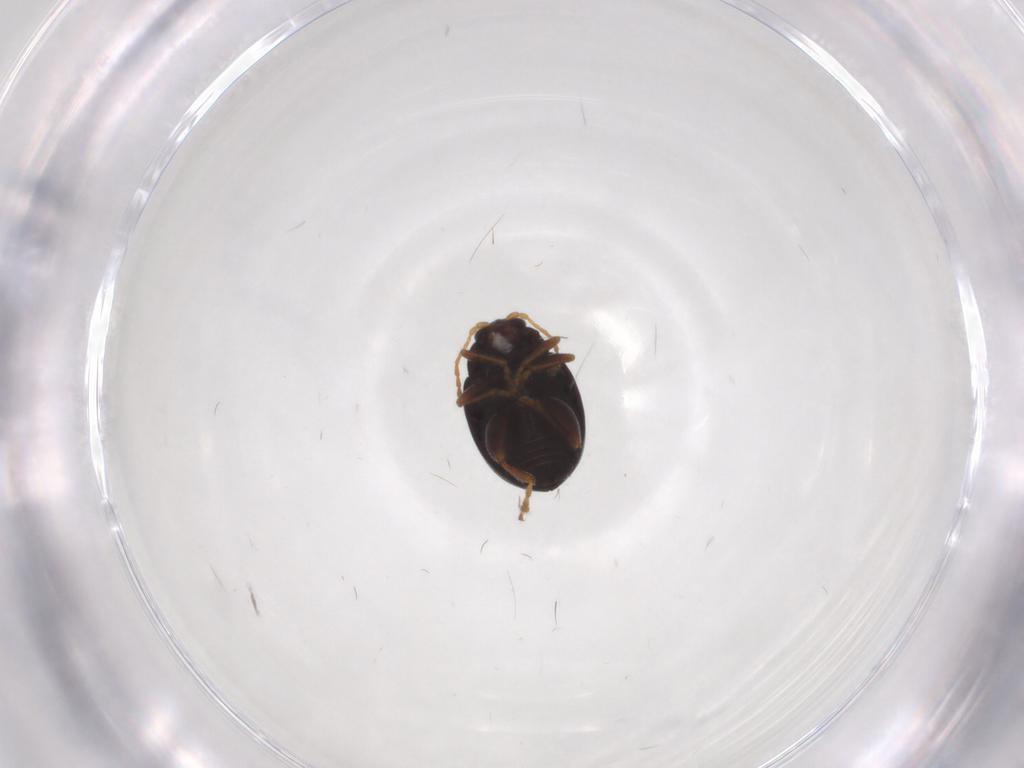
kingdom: Animalia
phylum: Arthropoda
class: Insecta
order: Coleoptera
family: Chrysomelidae
